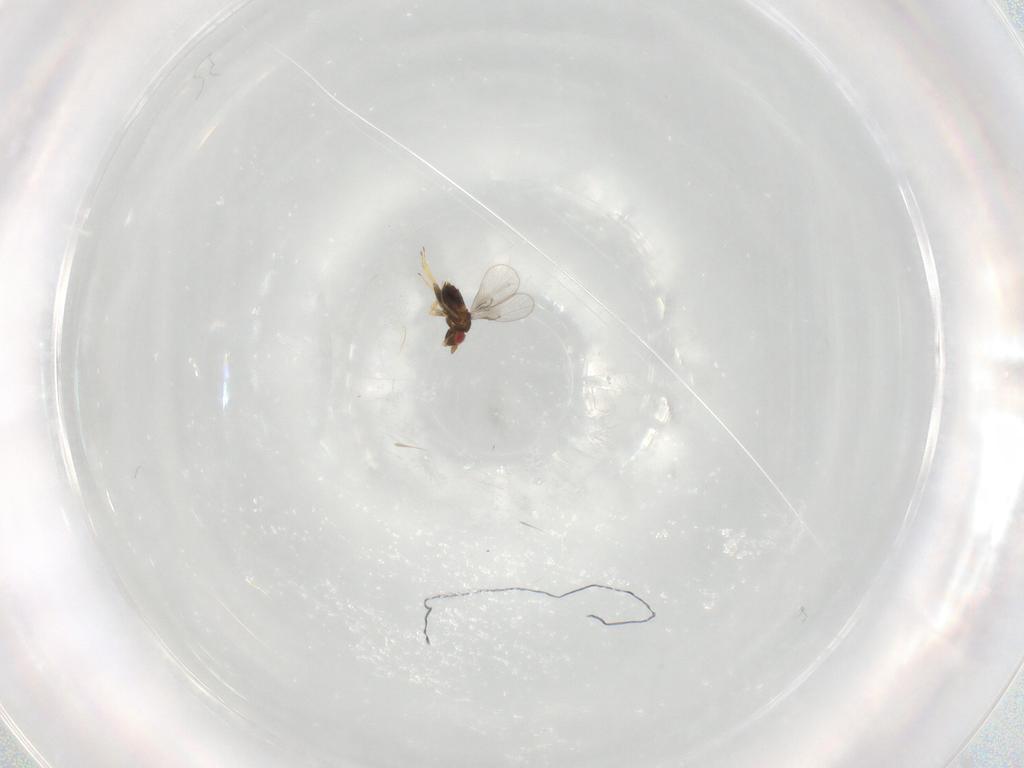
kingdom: Animalia
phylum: Arthropoda
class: Insecta
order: Hymenoptera
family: Trichogrammatidae
